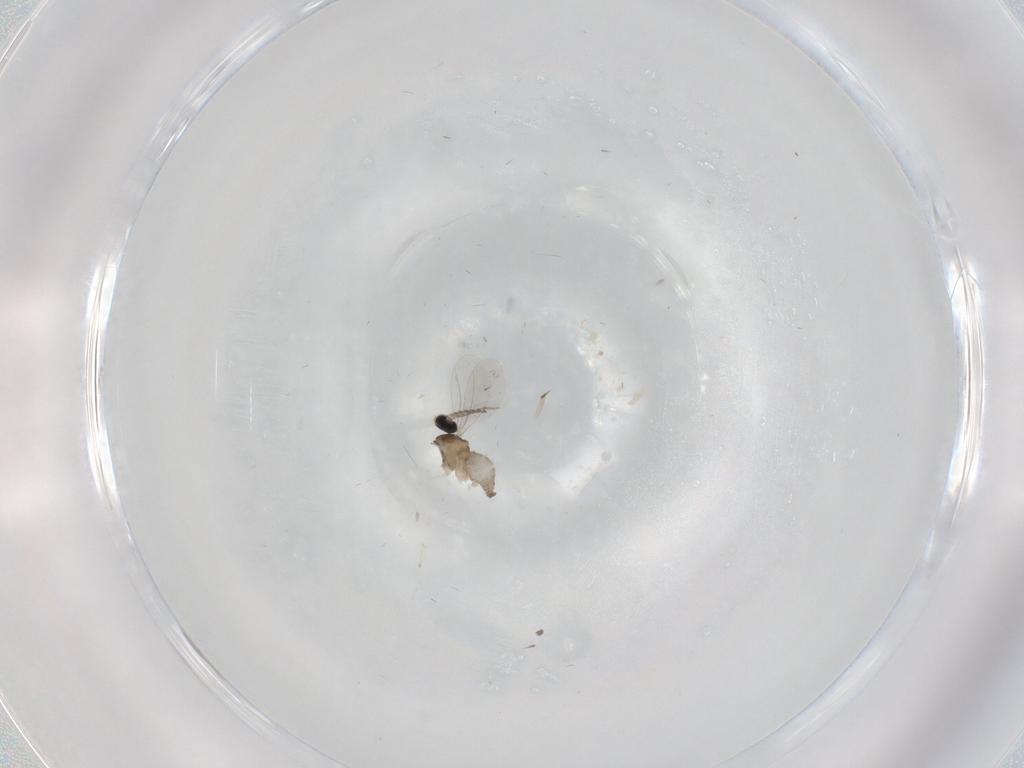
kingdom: Animalia
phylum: Arthropoda
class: Insecta
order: Diptera
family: Cecidomyiidae
